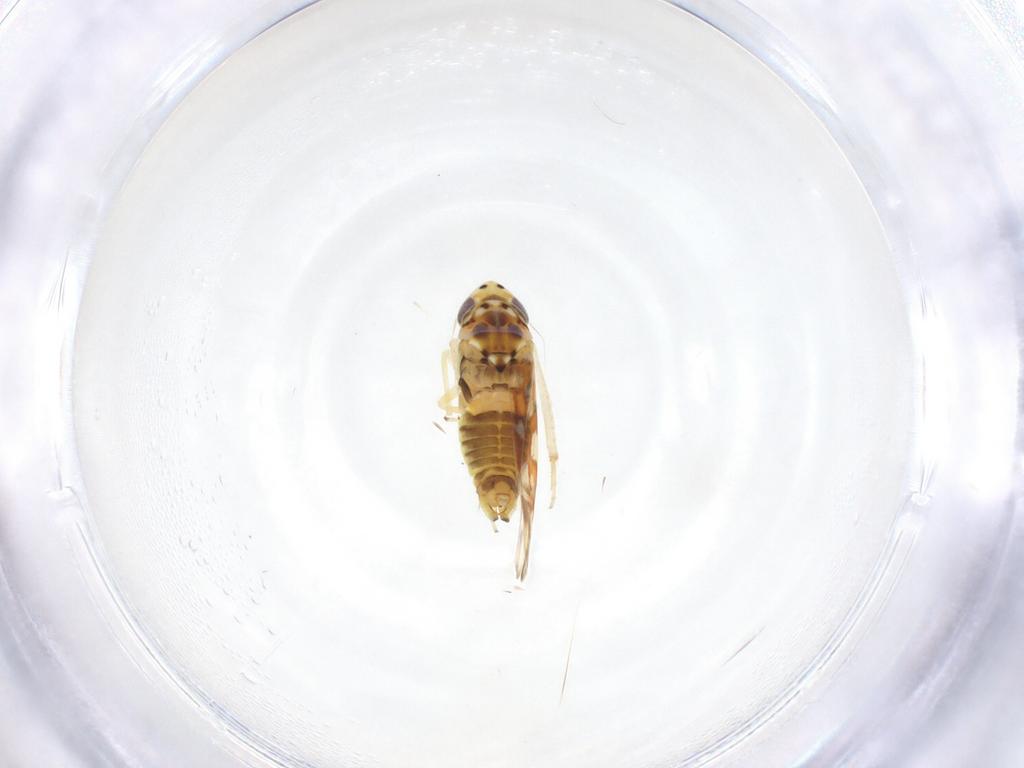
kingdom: Animalia
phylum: Arthropoda
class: Insecta
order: Hemiptera
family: Cicadellidae
